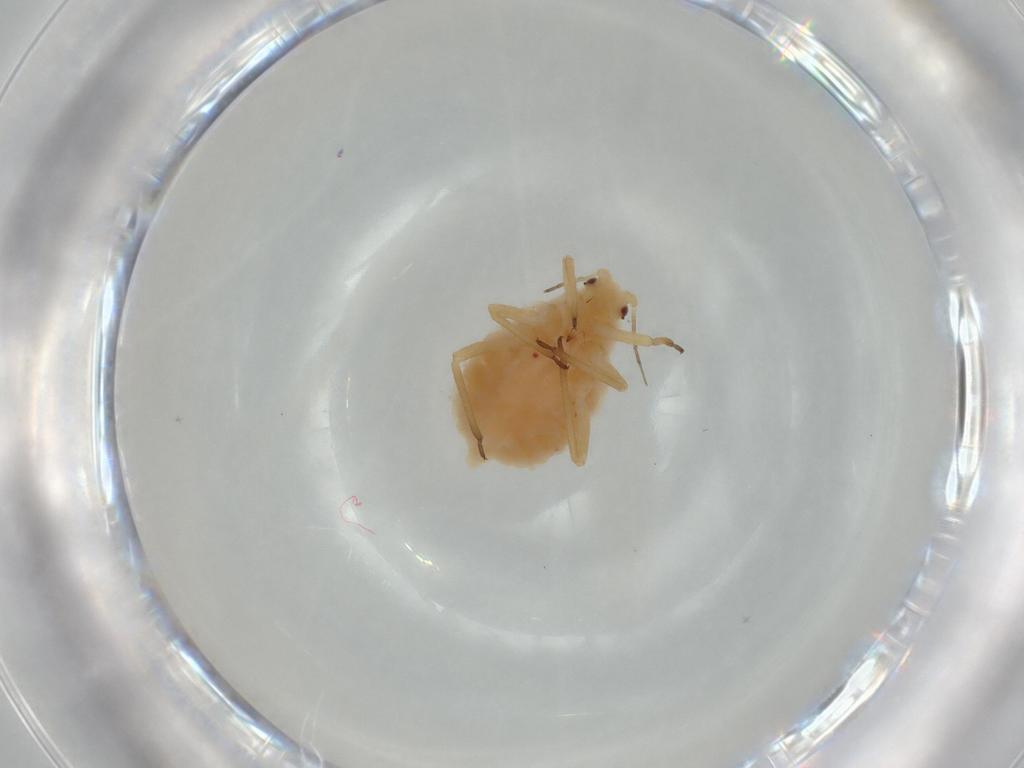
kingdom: Animalia
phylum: Arthropoda
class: Insecta
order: Hemiptera
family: Aphididae
